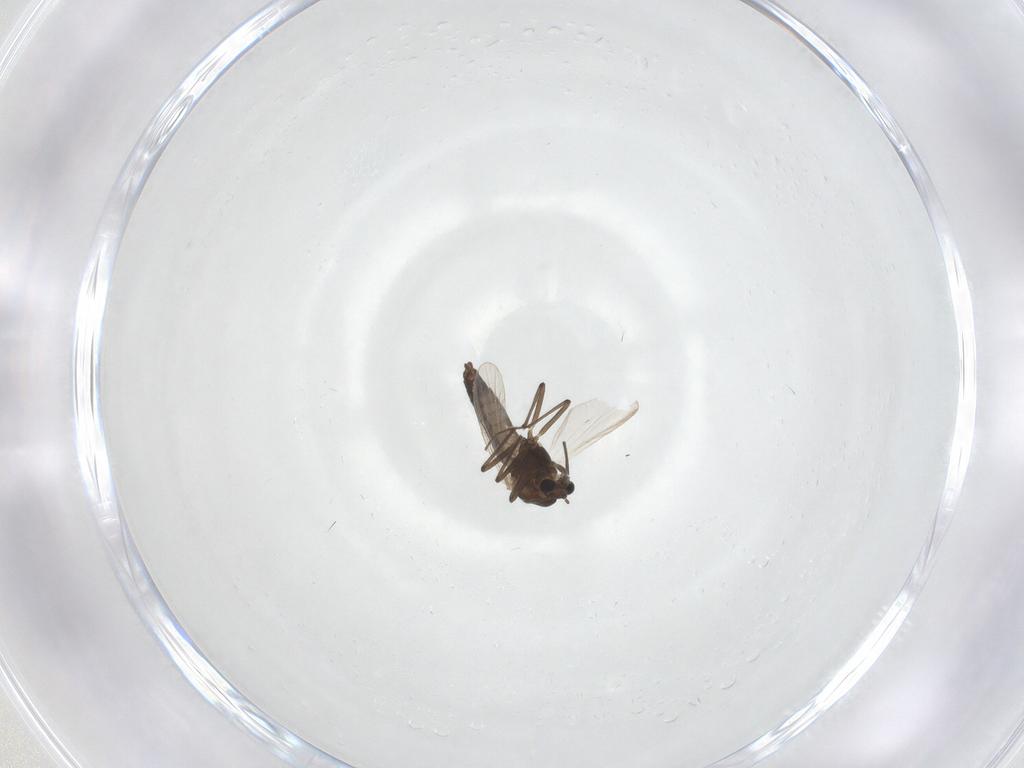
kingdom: Animalia
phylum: Arthropoda
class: Insecta
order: Diptera
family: Chironomidae
